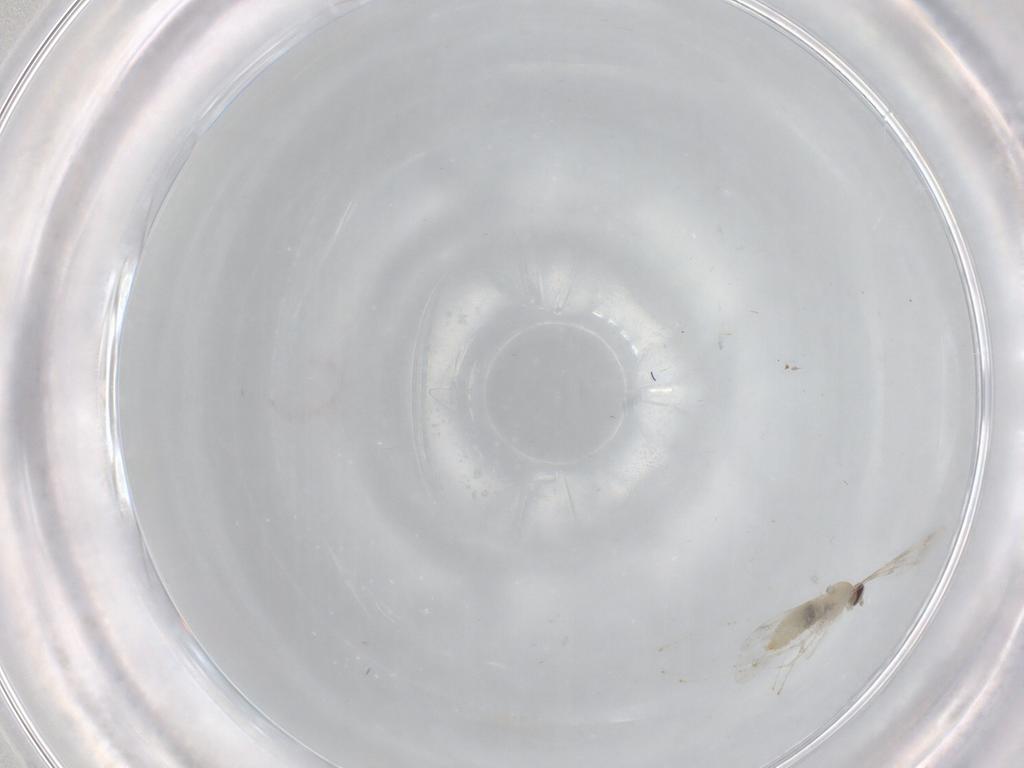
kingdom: Animalia
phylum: Arthropoda
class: Insecta
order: Diptera
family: Cecidomyiidae
